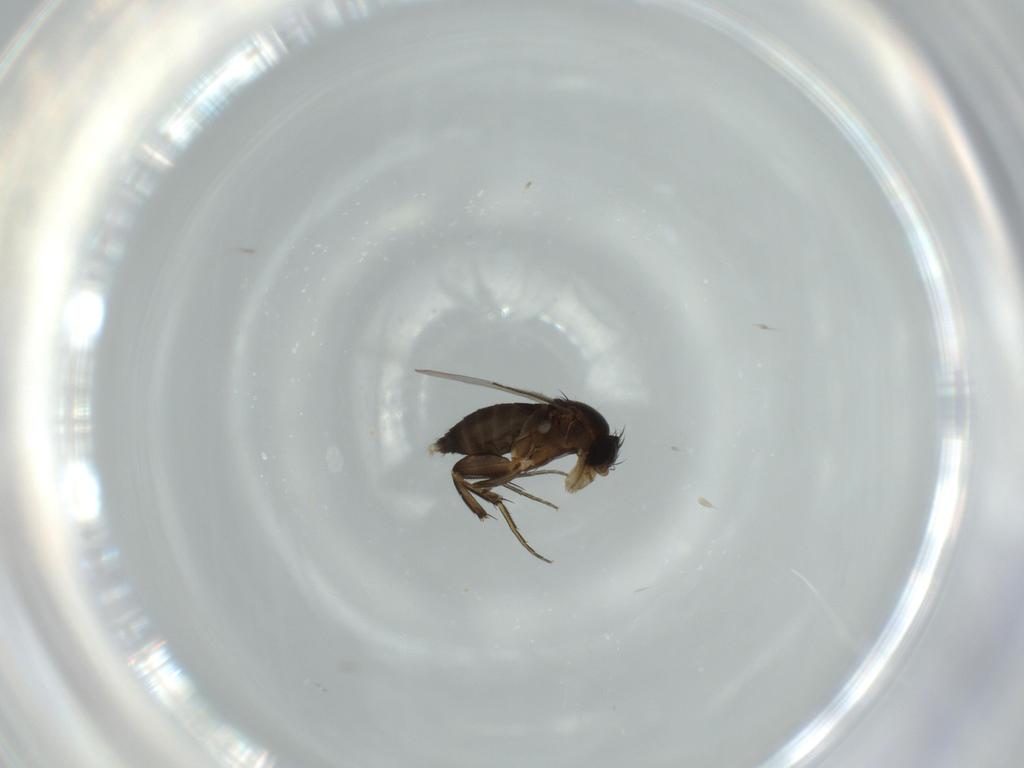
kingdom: Animalia
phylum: Arthropoda
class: Insecta
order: Diptera
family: Phoridae
